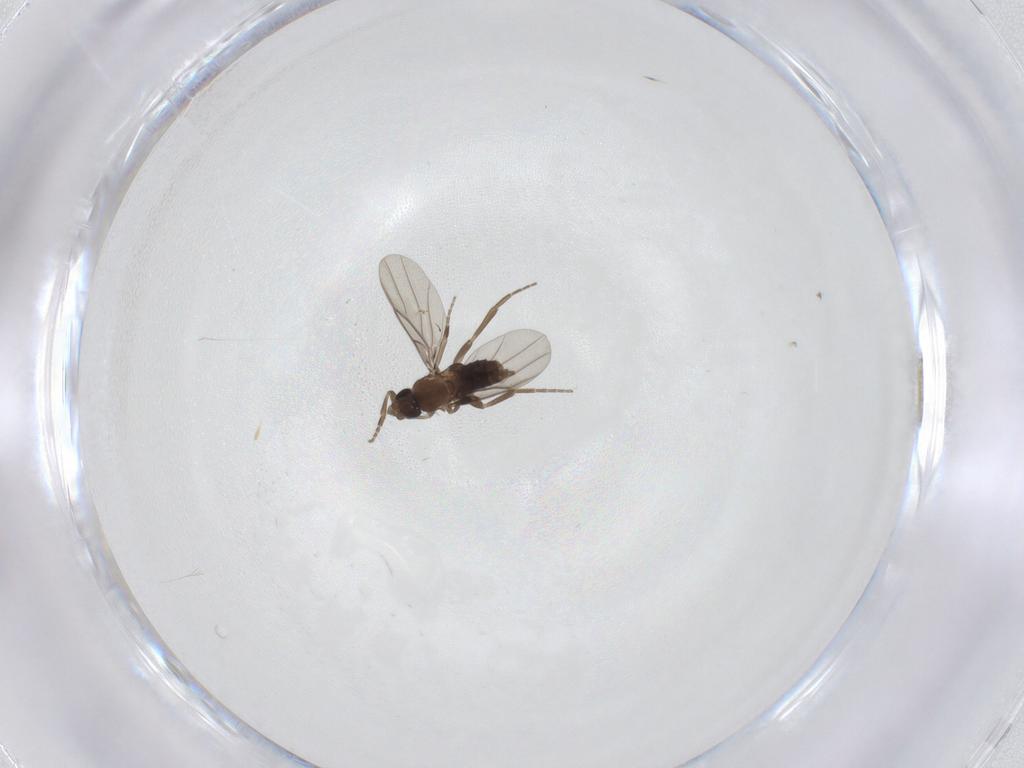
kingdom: Animalia
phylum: Arthropoda
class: Insecta
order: Diptera
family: Phoridae
